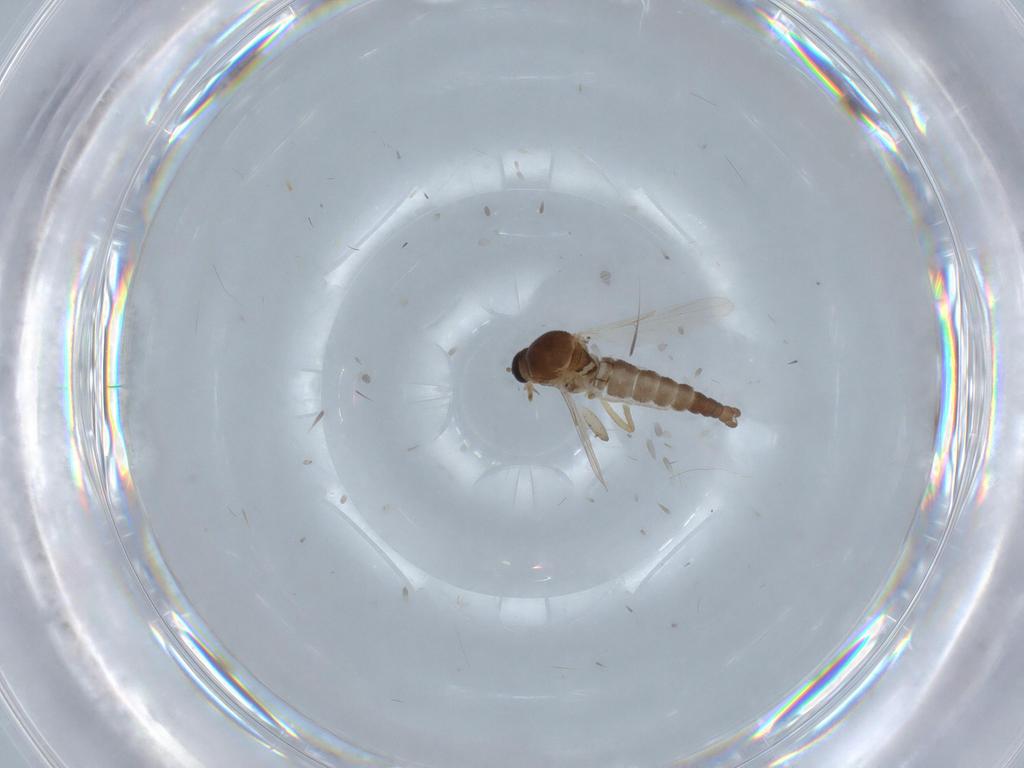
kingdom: Animalia
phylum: Arthropoda
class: Insecta
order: Diptera
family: Ceratopogonidae
